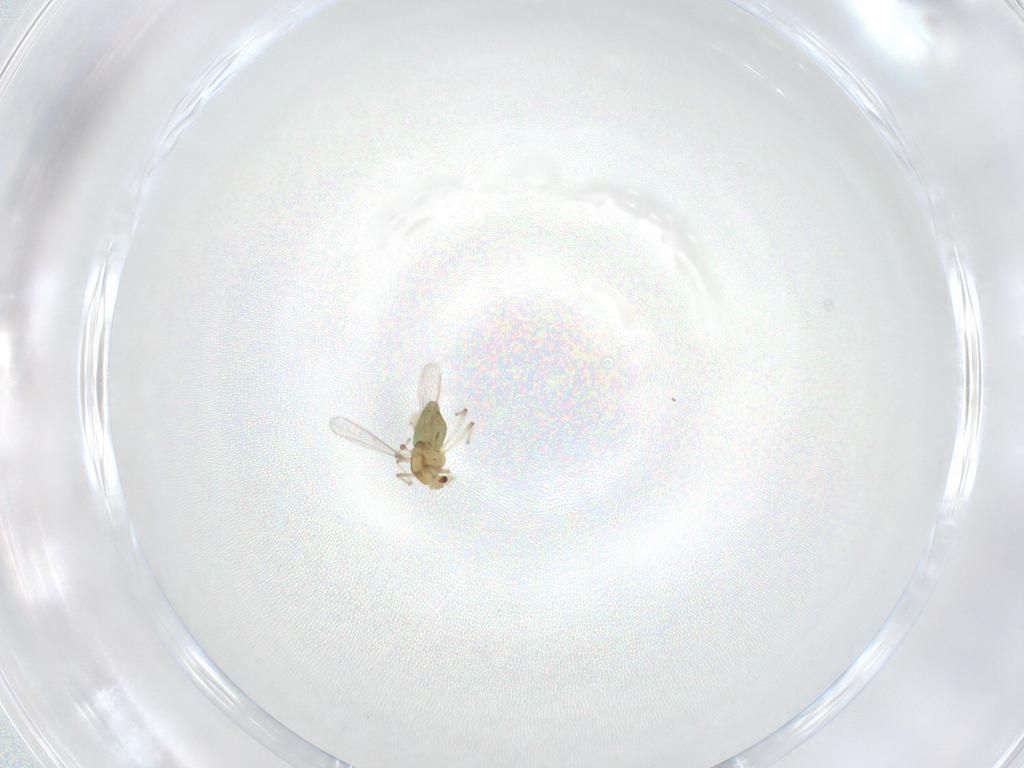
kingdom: Animalia
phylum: Arthropoda
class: Insecta
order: Diptera
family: Chironomidae
